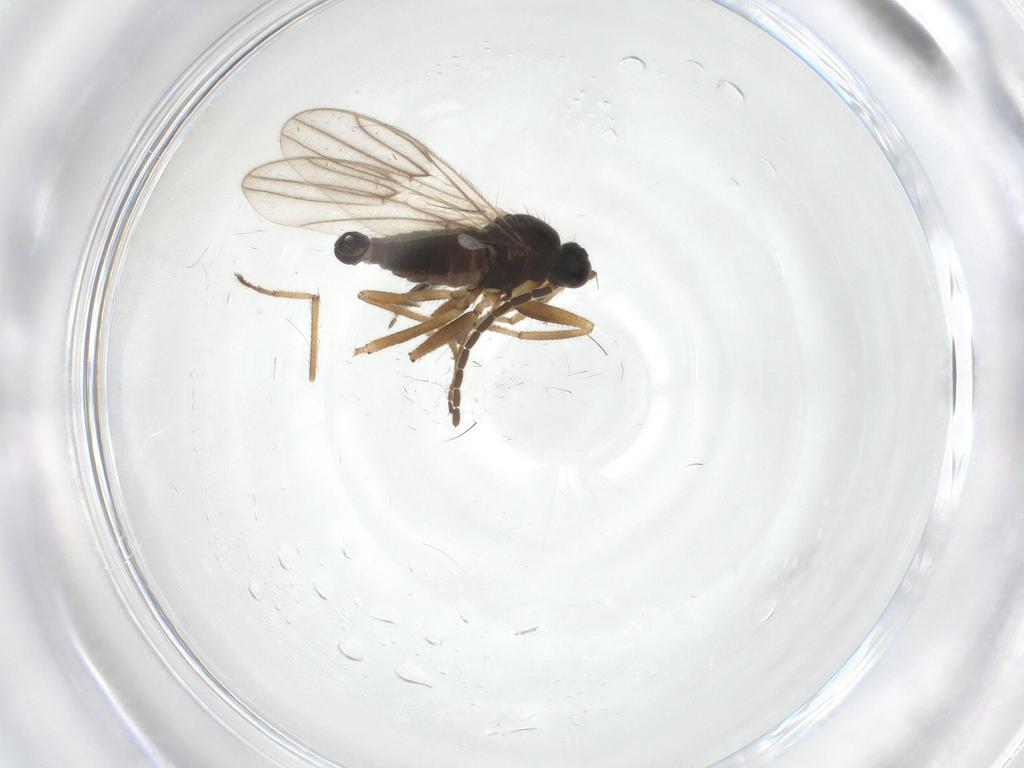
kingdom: Animalia
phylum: Arthropoda
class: Insecta
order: Diptera
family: Hybotidae
